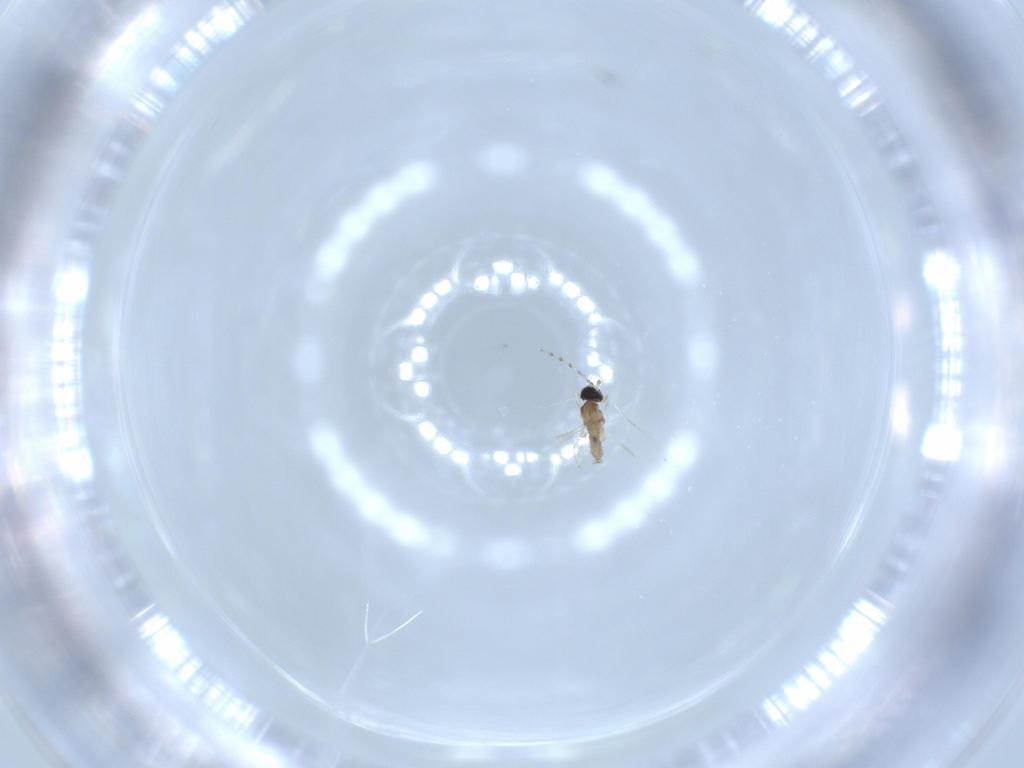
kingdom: Animalia
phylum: Arthropoda
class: Insecta
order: Diptera
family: Cecidomyiidae
